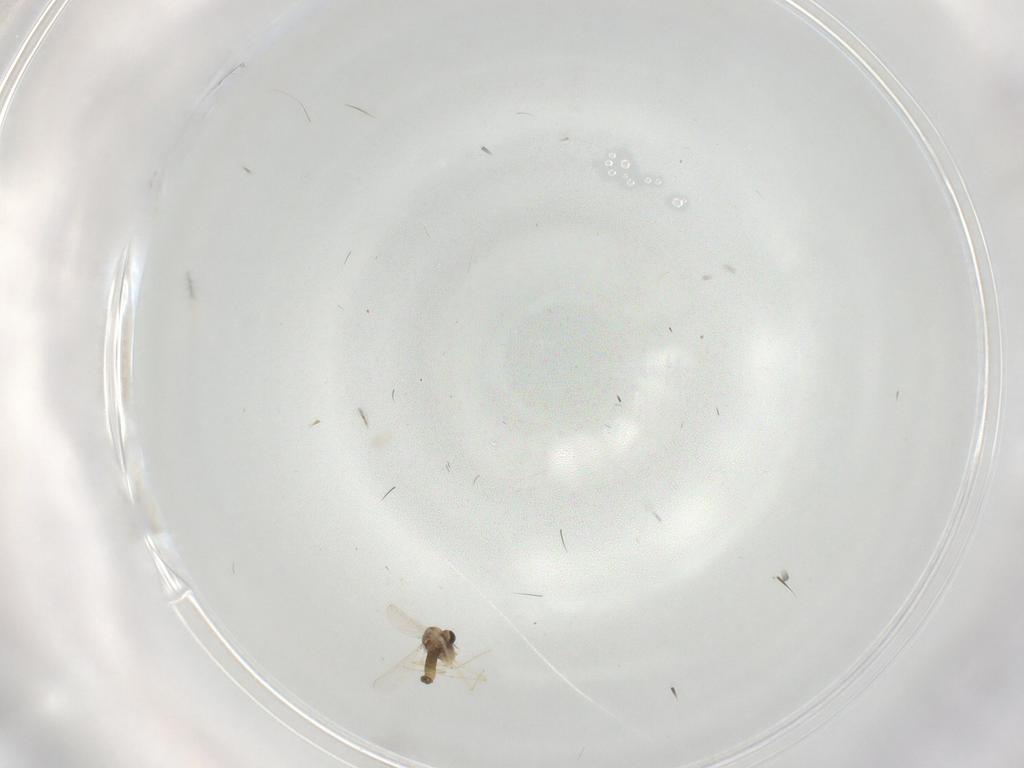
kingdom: Animalia
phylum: Arthropoda
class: Insecta
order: Diptera
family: Chironomidae
